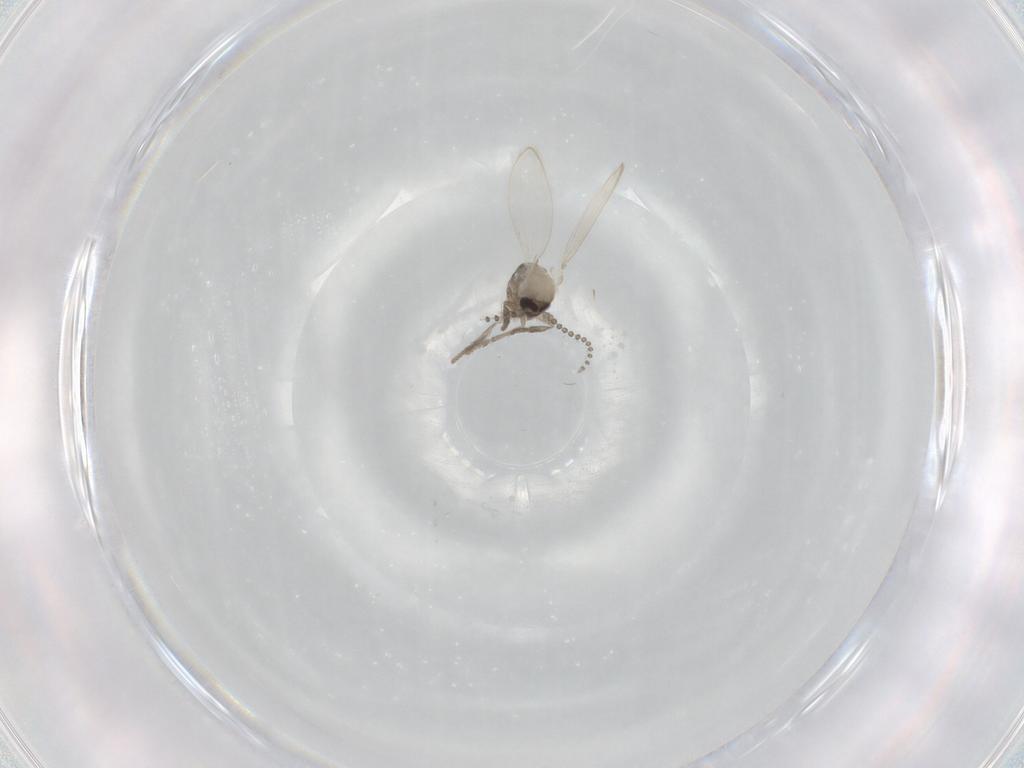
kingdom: Animalia
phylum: Arthropoda
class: Insecta
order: Diptera
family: Psychodidae
